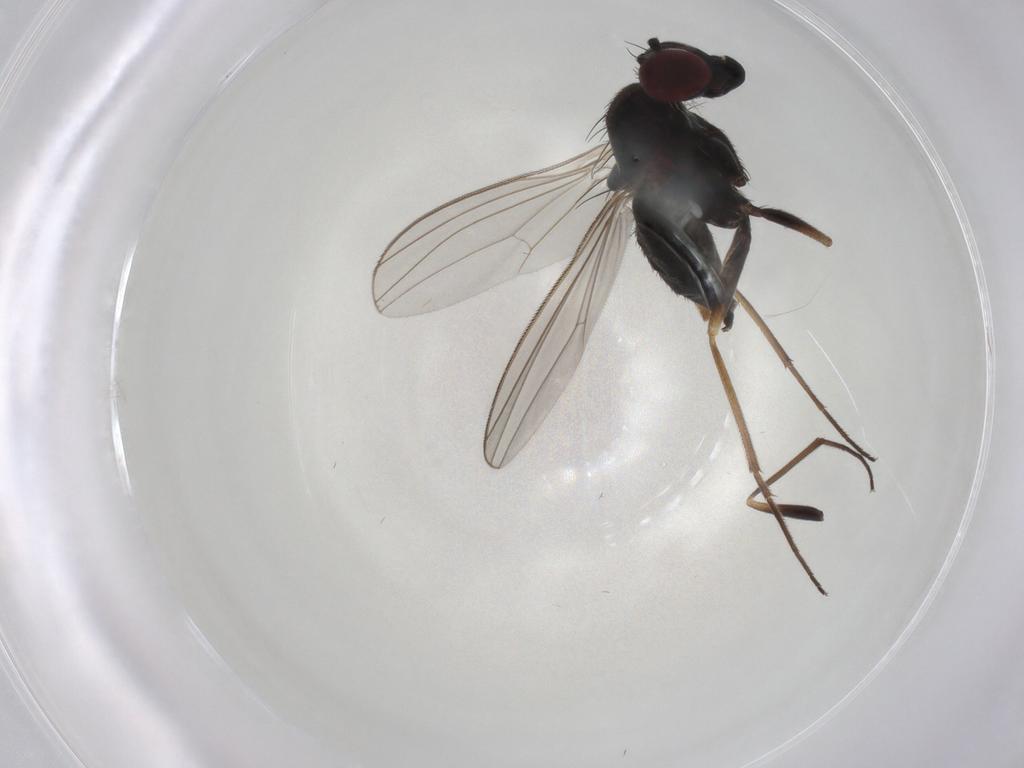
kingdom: Animalia
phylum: Arthropoda
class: Insecta
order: Diptera
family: Dolichopodidae
